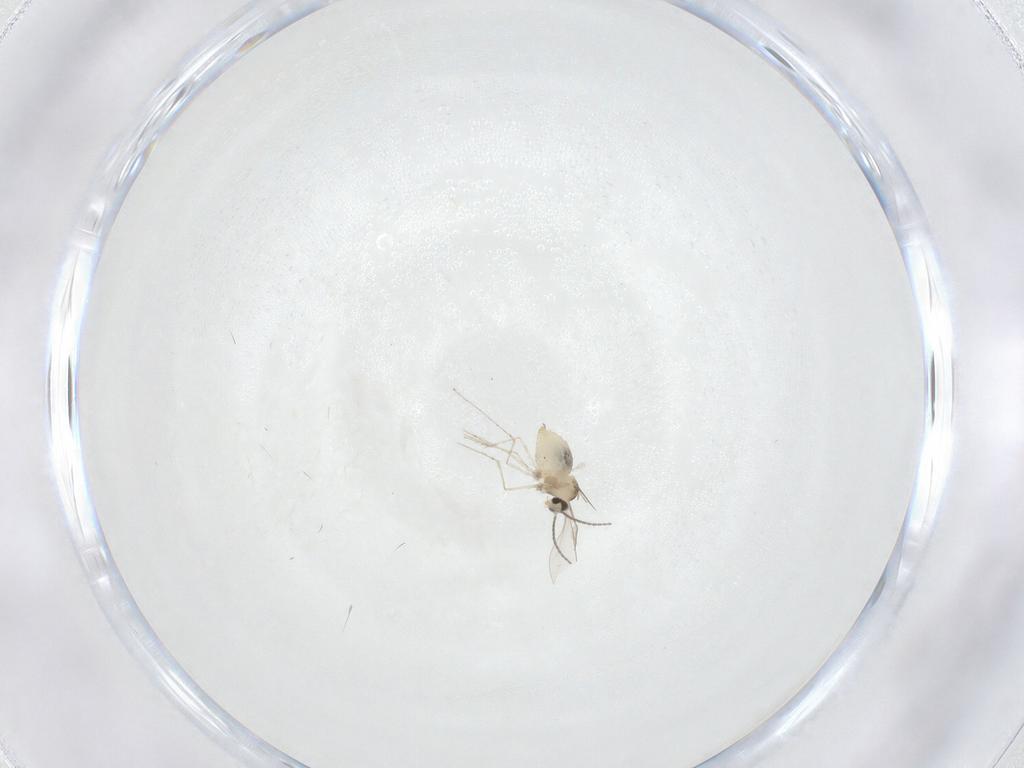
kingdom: Animalia
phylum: Arthropoda
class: Insecta
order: Diptera
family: Cecidomyiidae
